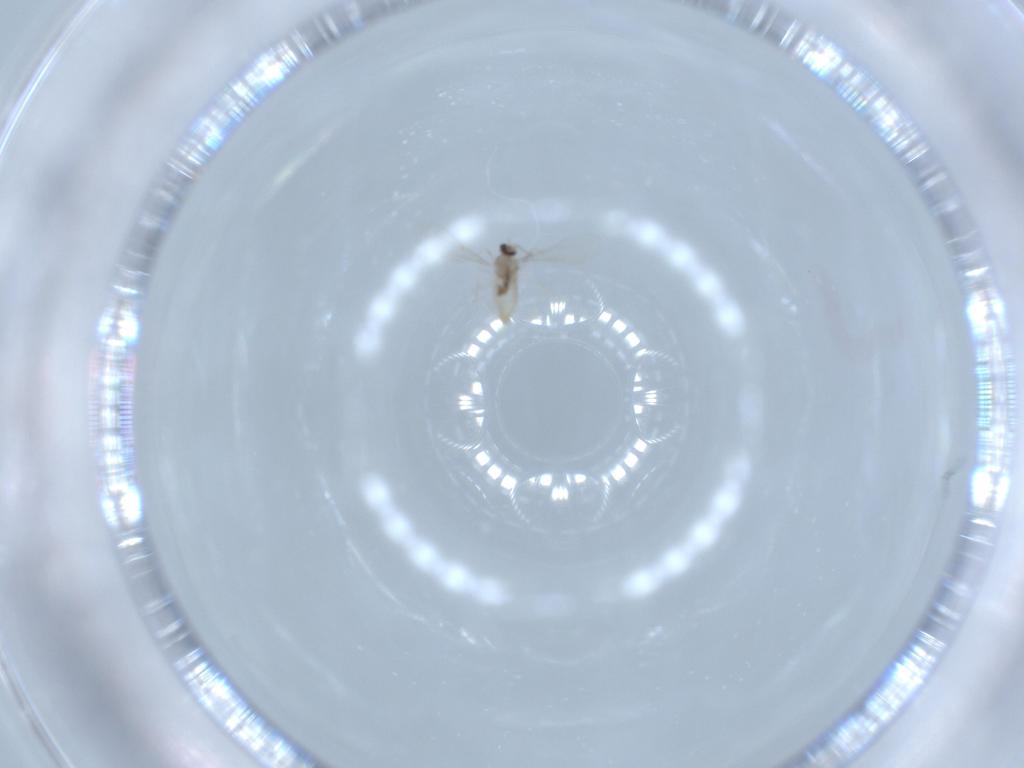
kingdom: Animalia
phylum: Arthropoda
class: Insecta
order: Diptera
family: Cecidomyiidae
